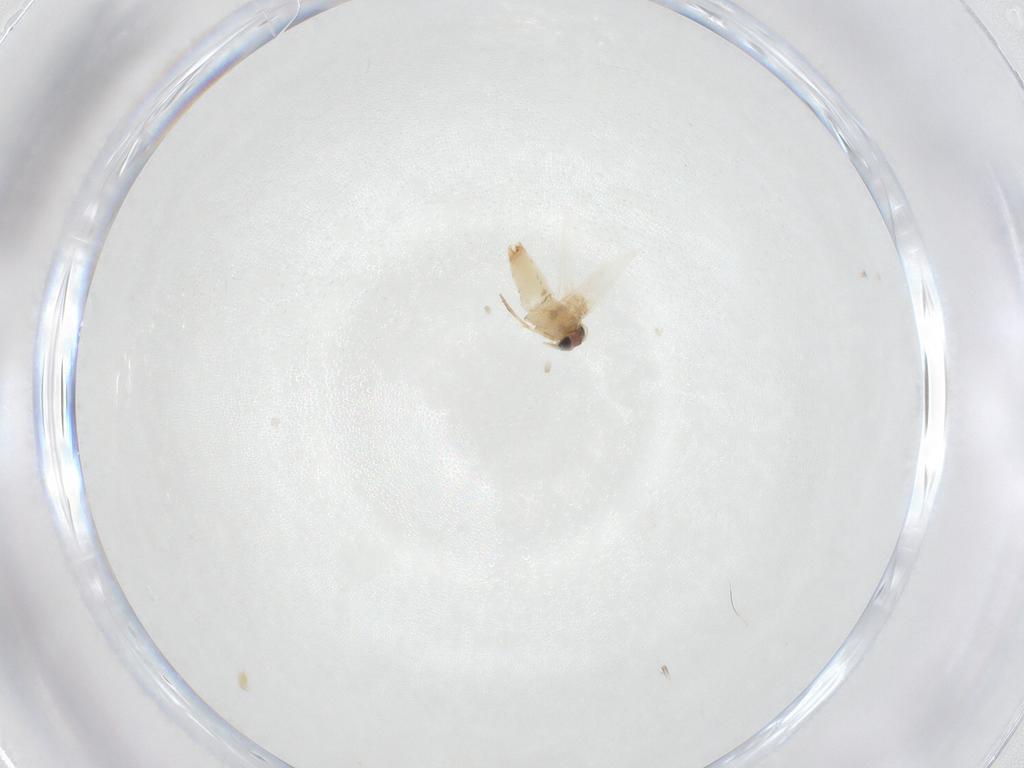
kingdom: Animalia
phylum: Arthropoda
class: Insecta
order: Lepidoptera
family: Crambidae
